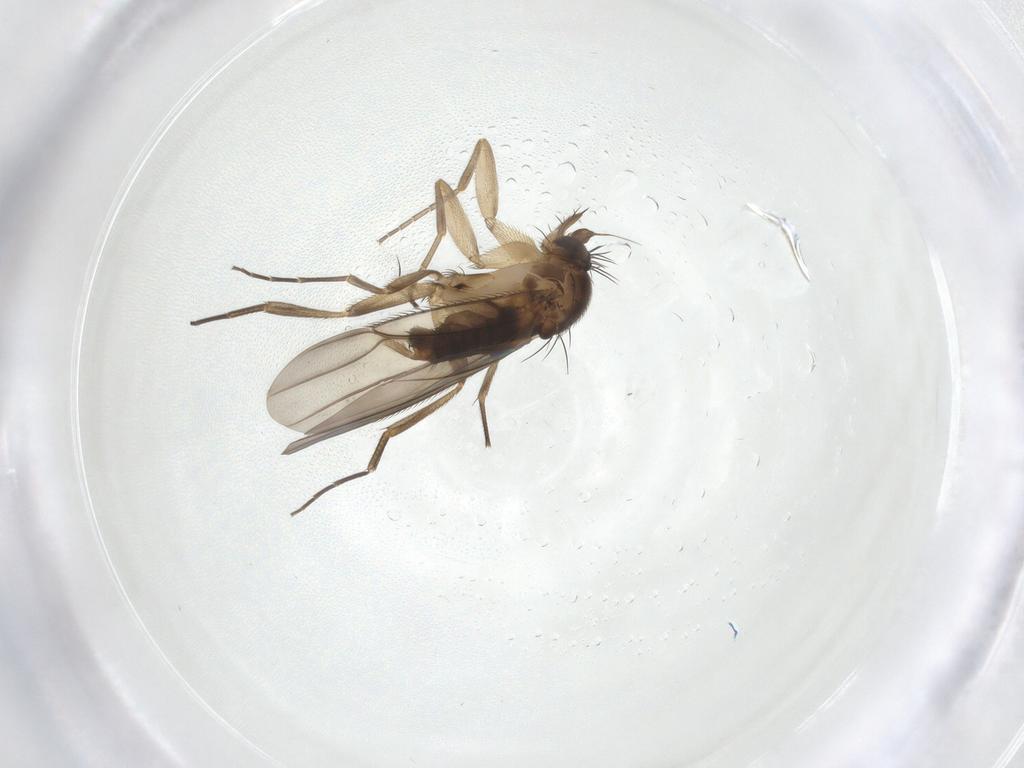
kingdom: Animalia
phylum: Arthropoda
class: Insecta
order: Diptera
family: Phoridae
